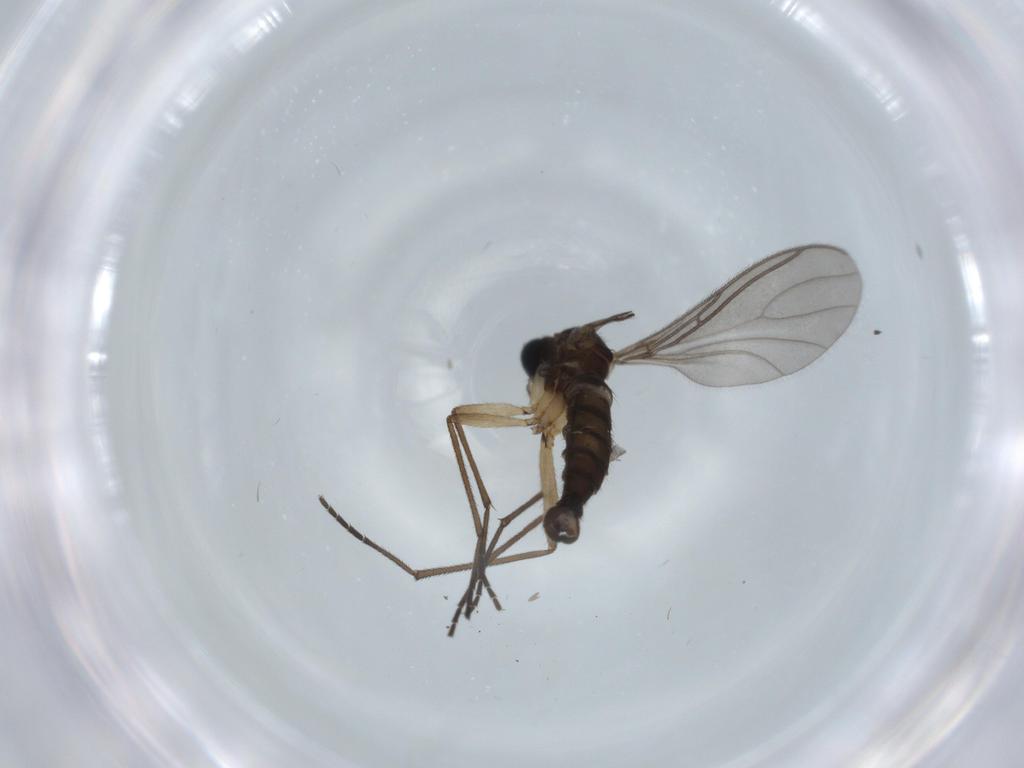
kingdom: Animalia
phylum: Arthropoda
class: Insecta
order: Diptera
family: Sciaridae
